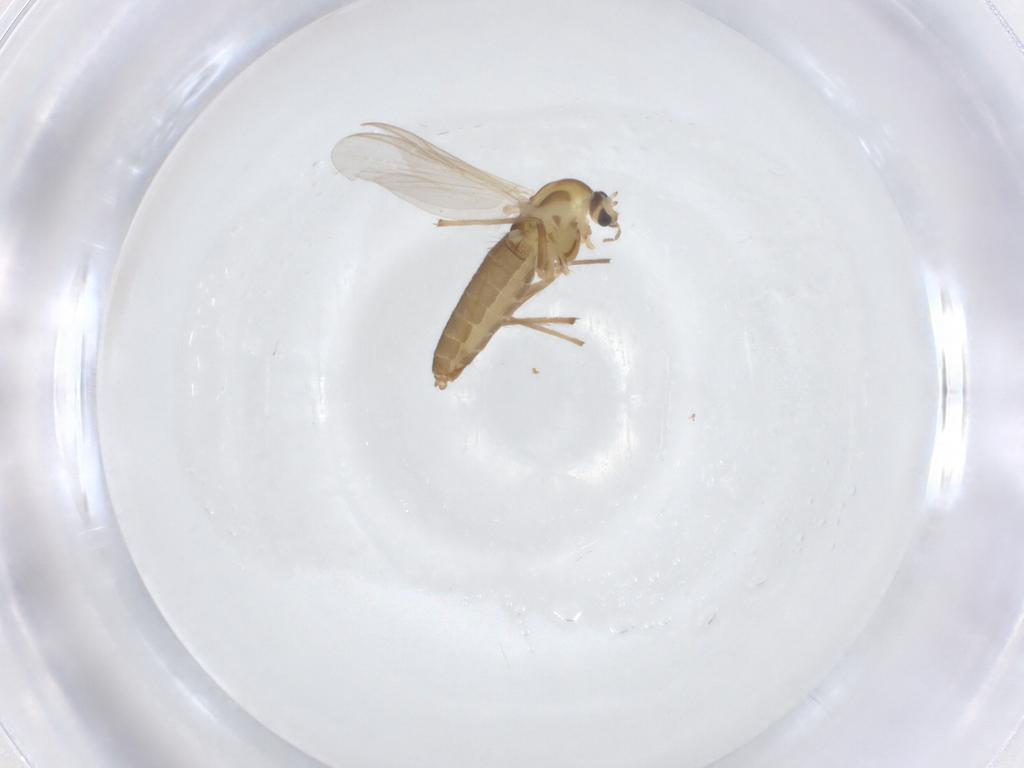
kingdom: Animalia
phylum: Arthropoda
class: Insecta
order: Diptera
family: Chironomidae
